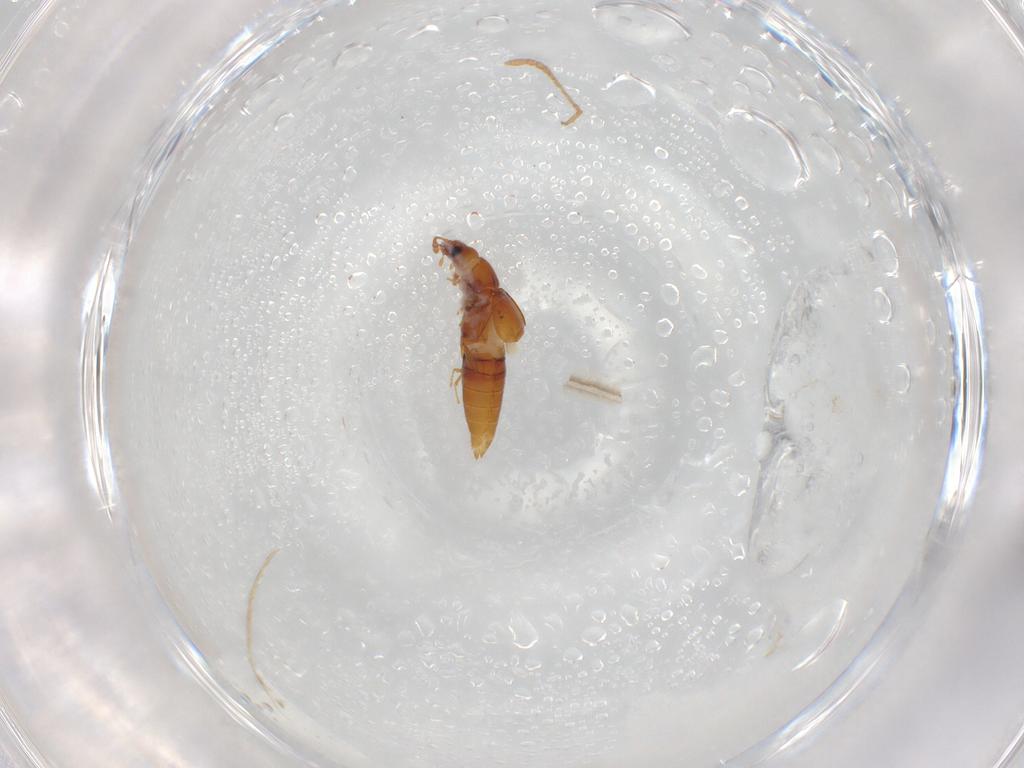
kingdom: Animalia
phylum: Arthropoda
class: Insecta
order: Coleoptera
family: Staphylinidae
